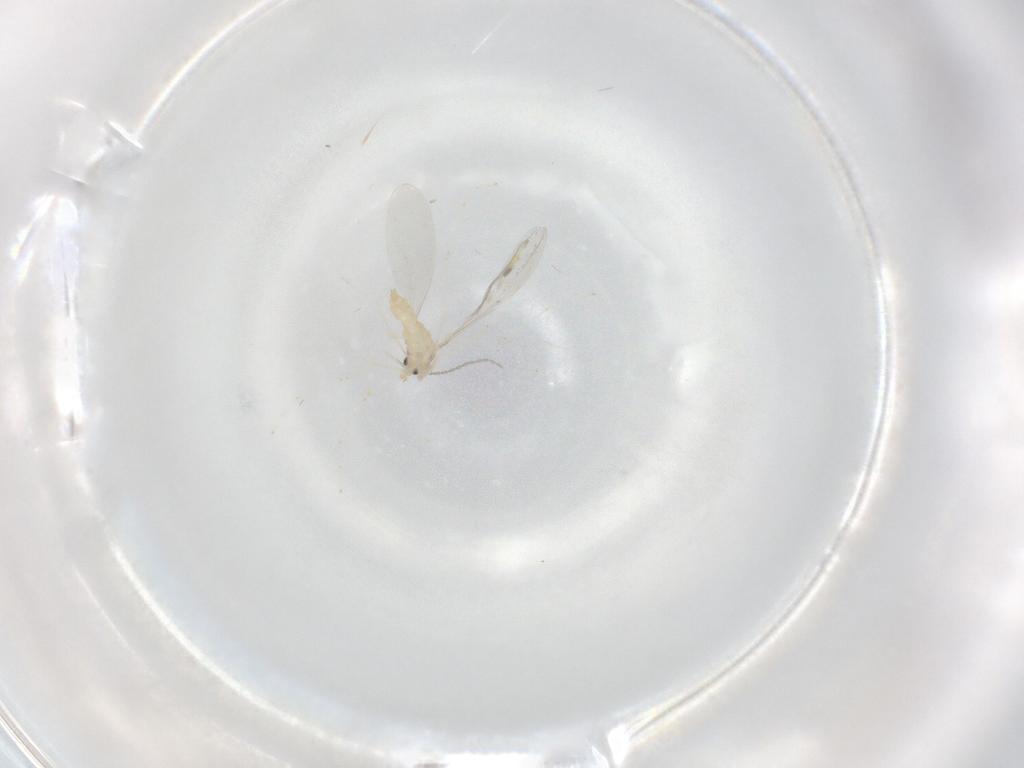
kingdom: Animalia
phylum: Arthropoda
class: Insecta
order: Diptera
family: Cecidomyiidae
